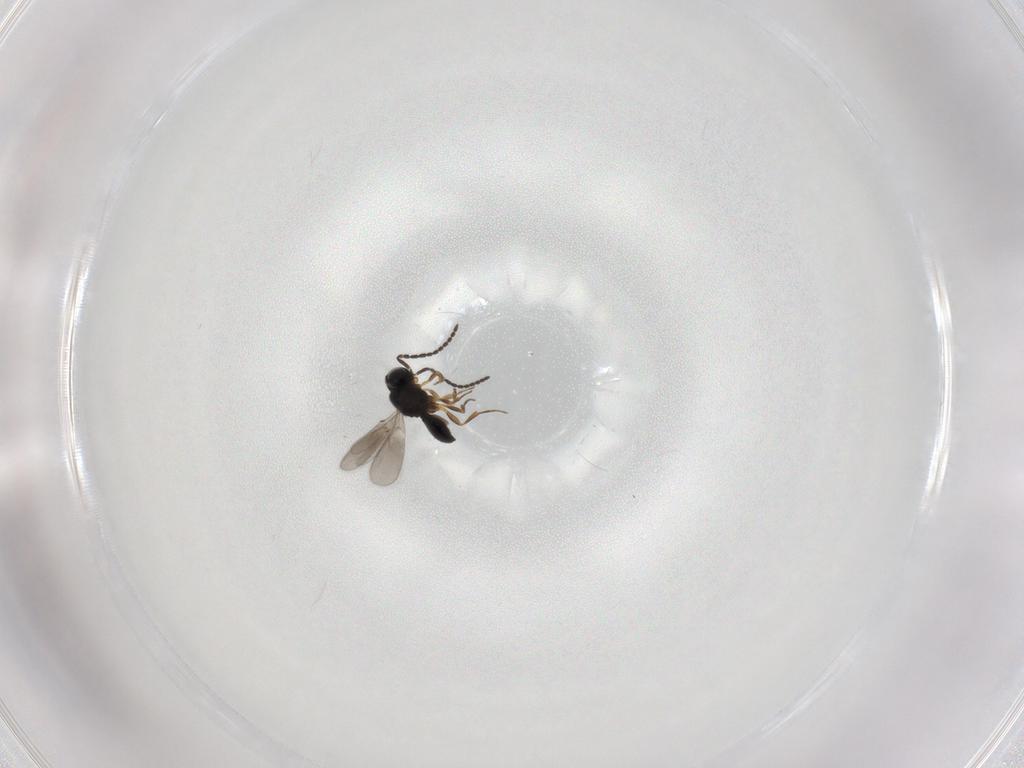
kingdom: Animalia
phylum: Arthropoda
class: Insecta
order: Hymenoptera
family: Scelionidae
